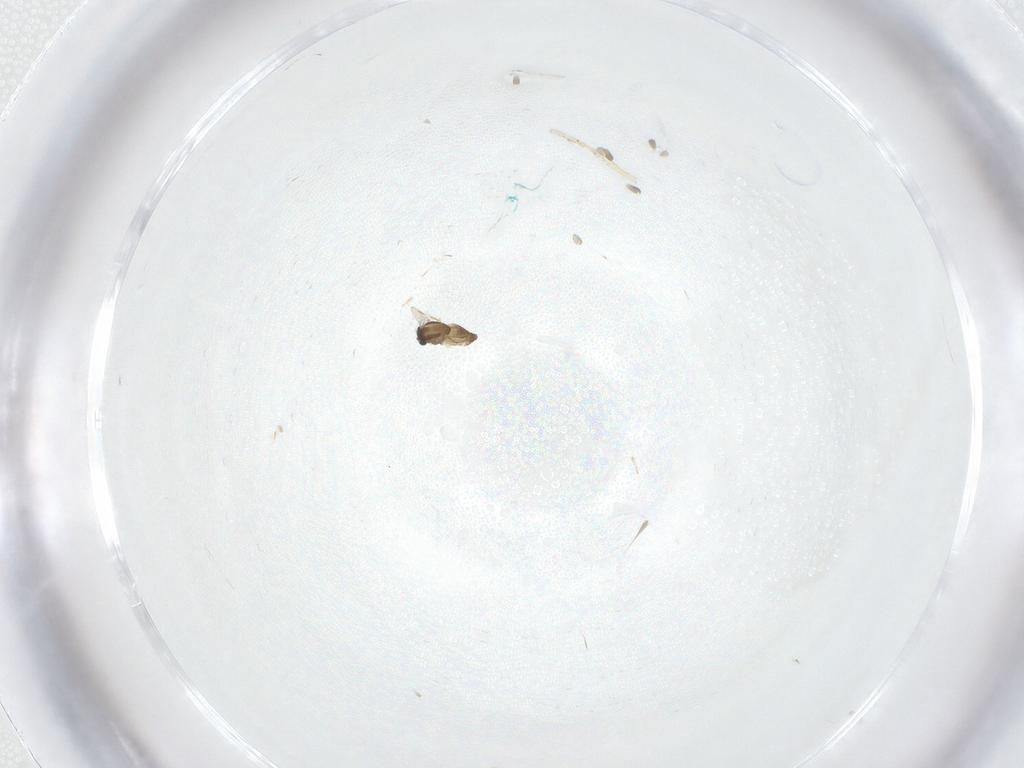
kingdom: Animalia
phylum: Arthropoda
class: Insecta
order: Diptera
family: Chironomidae
